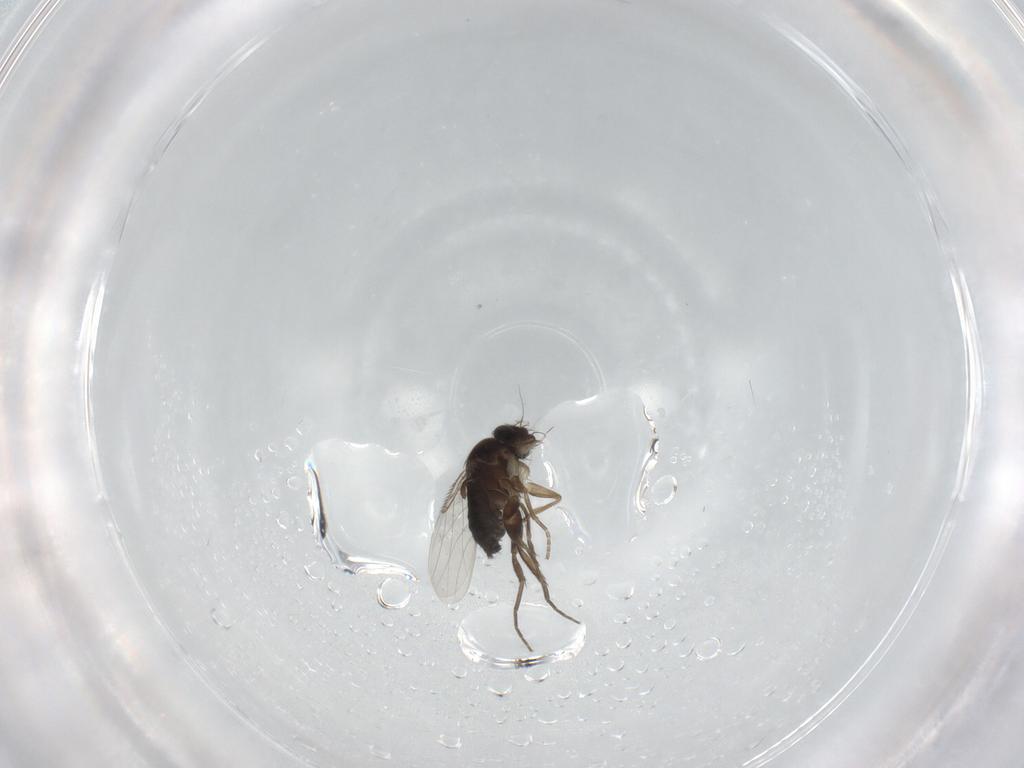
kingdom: Animalia
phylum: Arthropoda
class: Insecta
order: Diptera
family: Phoridae
